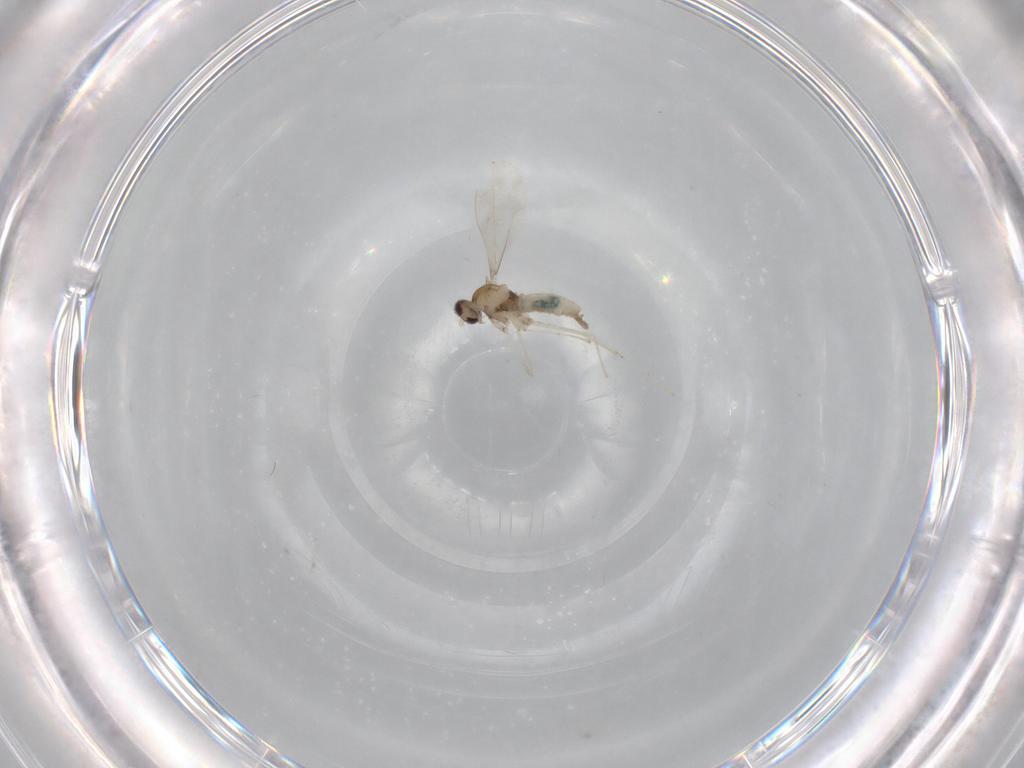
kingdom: Animalia
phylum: Arthropoda
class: Insecta
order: Diptera
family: Cecidomyiidae
